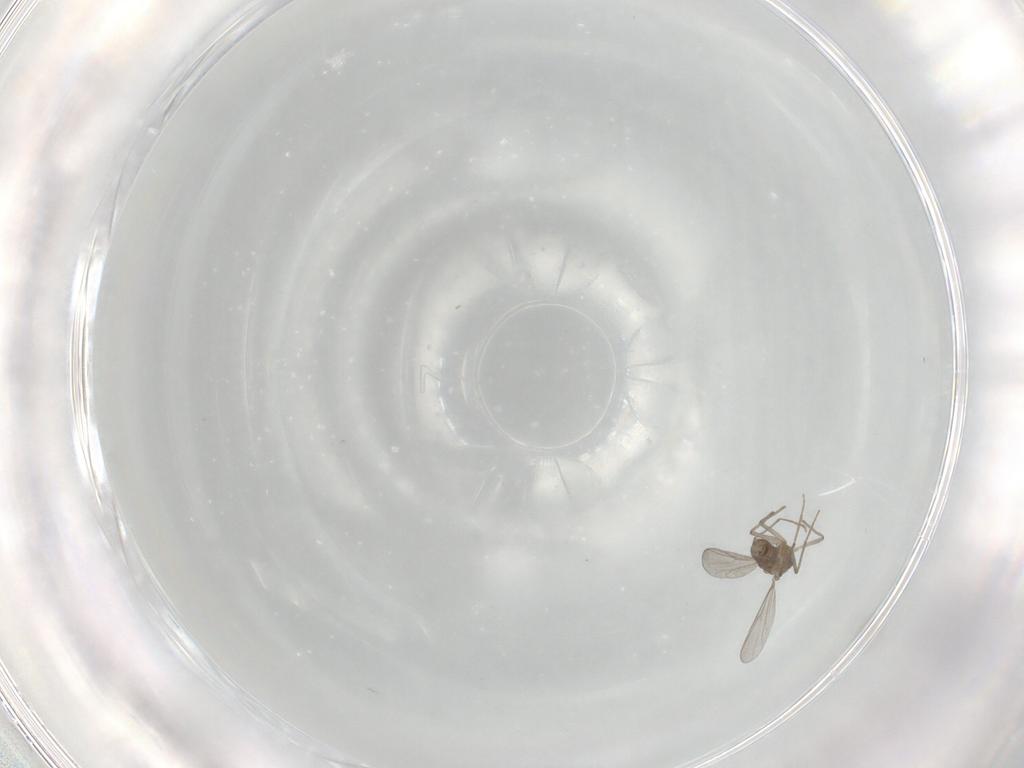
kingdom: Animalia
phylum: Arthropoda
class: Insecta
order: Diptera
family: Chironomidae
